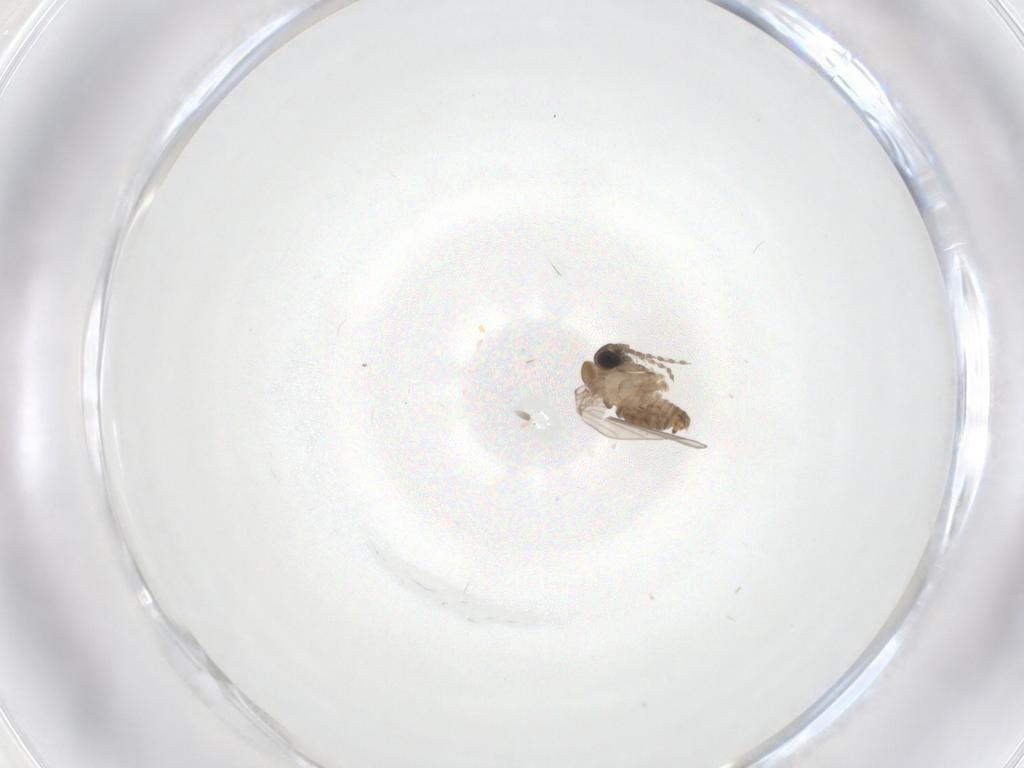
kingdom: Animalia
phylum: Arthropoda
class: Insecta
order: Diptera
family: Psychodidae
